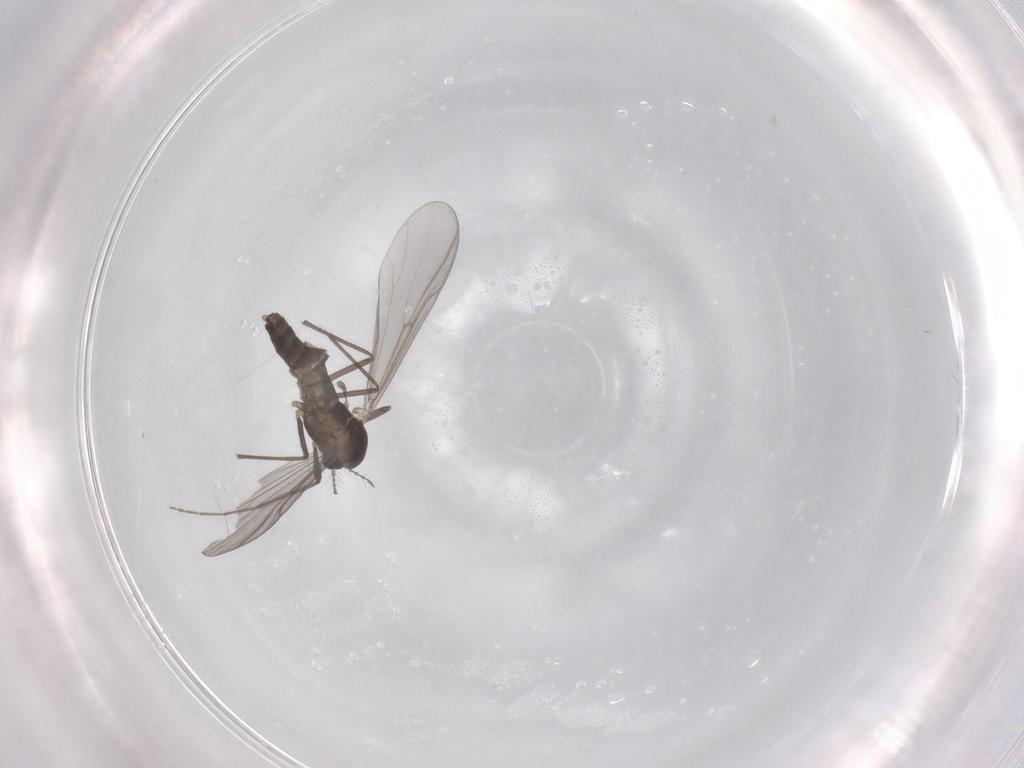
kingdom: Animalia
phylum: Arthropoda
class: Insecta
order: Diptera
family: Chironomidae
